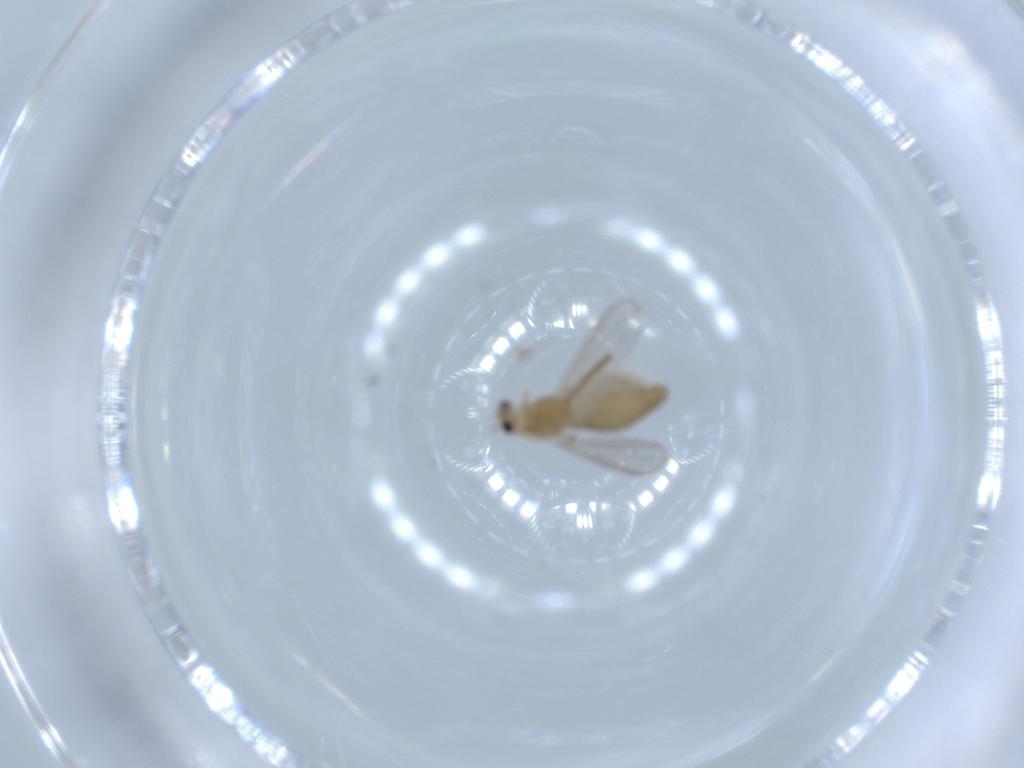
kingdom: Animalia
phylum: Arthropoda
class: Insecta
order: Diptera
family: Chironomidae
